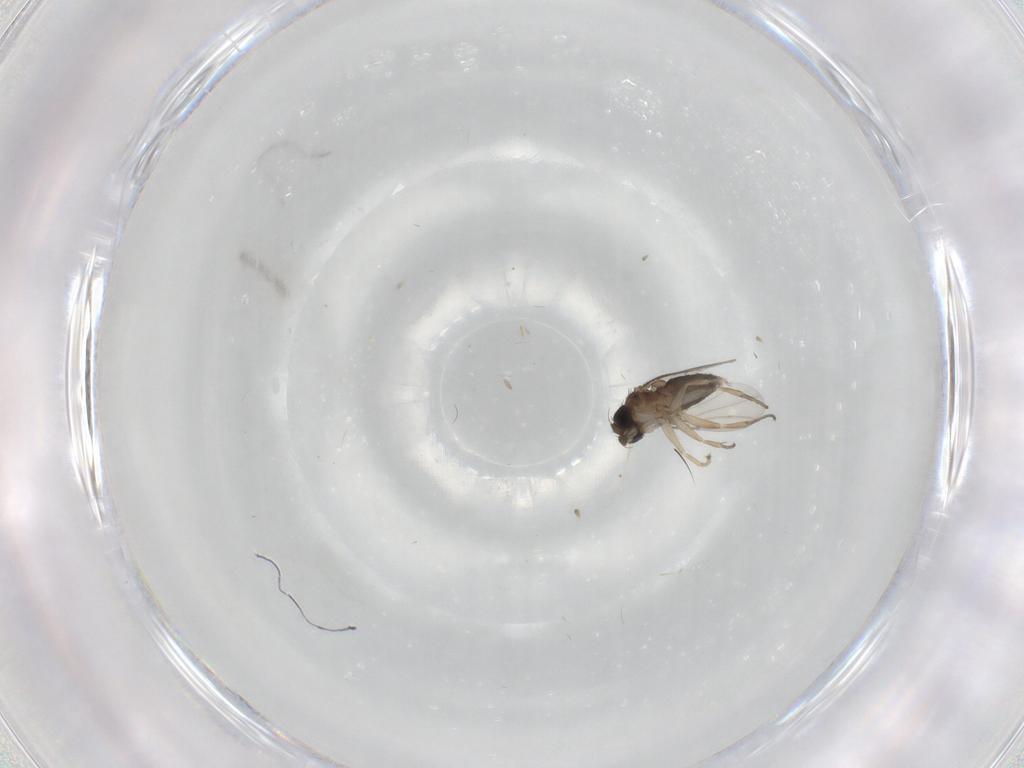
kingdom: Animalia
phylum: Arthropoda
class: Insecta
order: Diptera
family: Phoridae
